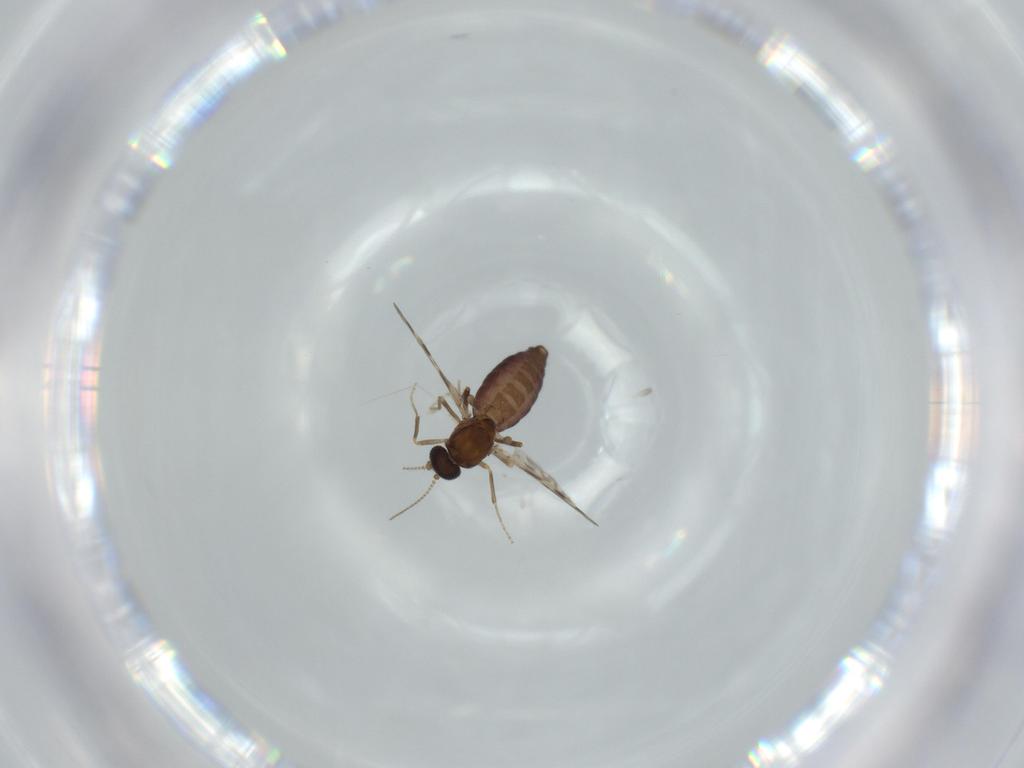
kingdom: Animalia
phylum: Arthropoda
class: Insecta
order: Diptera
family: Ceratopogonidae
